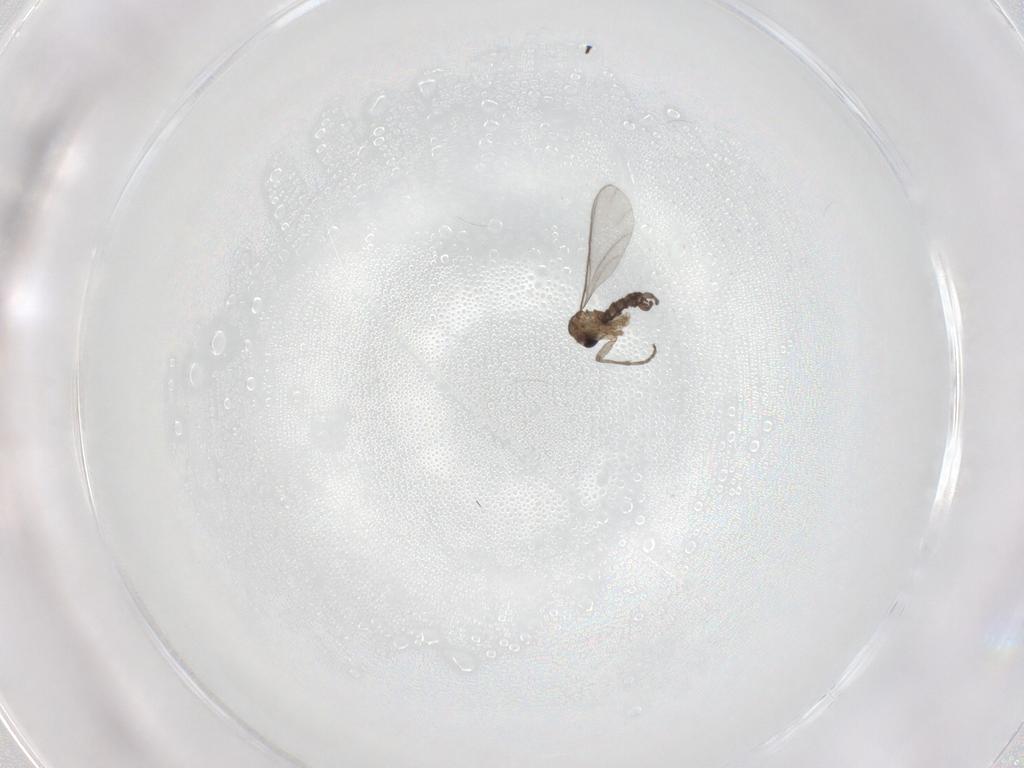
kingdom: Animalia
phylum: Arthropoda
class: Insecta
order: Diptera
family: Sciaridae
